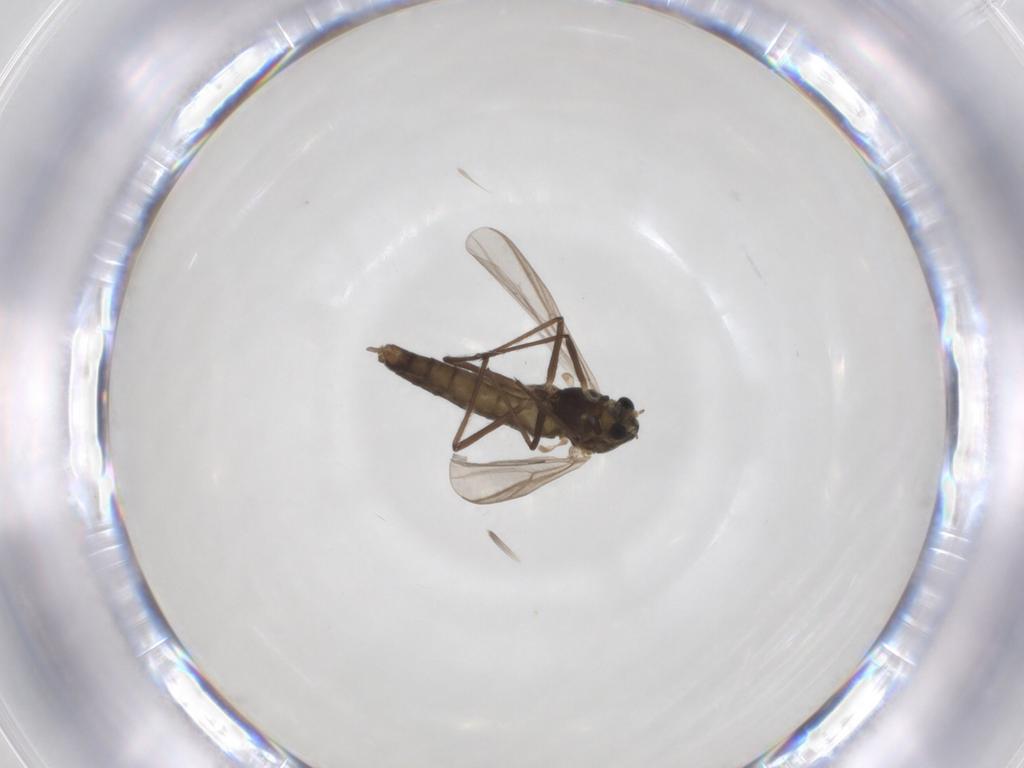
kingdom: Animalia
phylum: Arthropoda
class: Insecta
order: Diptera
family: Chironomidae
